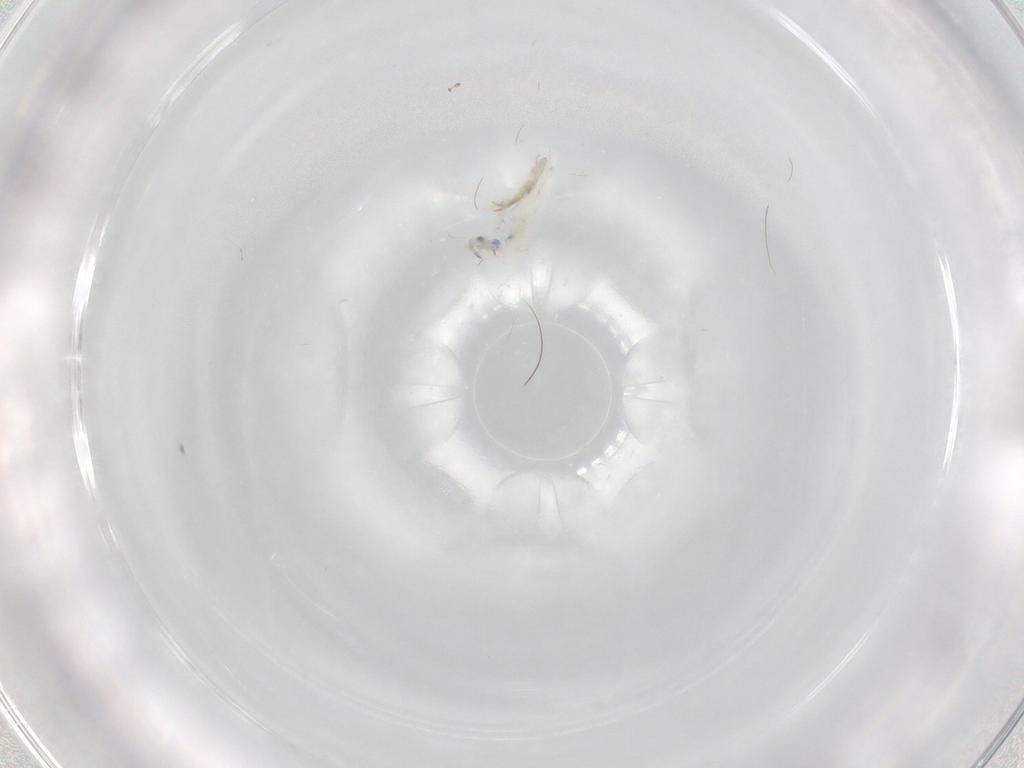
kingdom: Animalia
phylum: Arthropoda
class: Collembola
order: Entomobryomorpha
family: Entomobryidae
